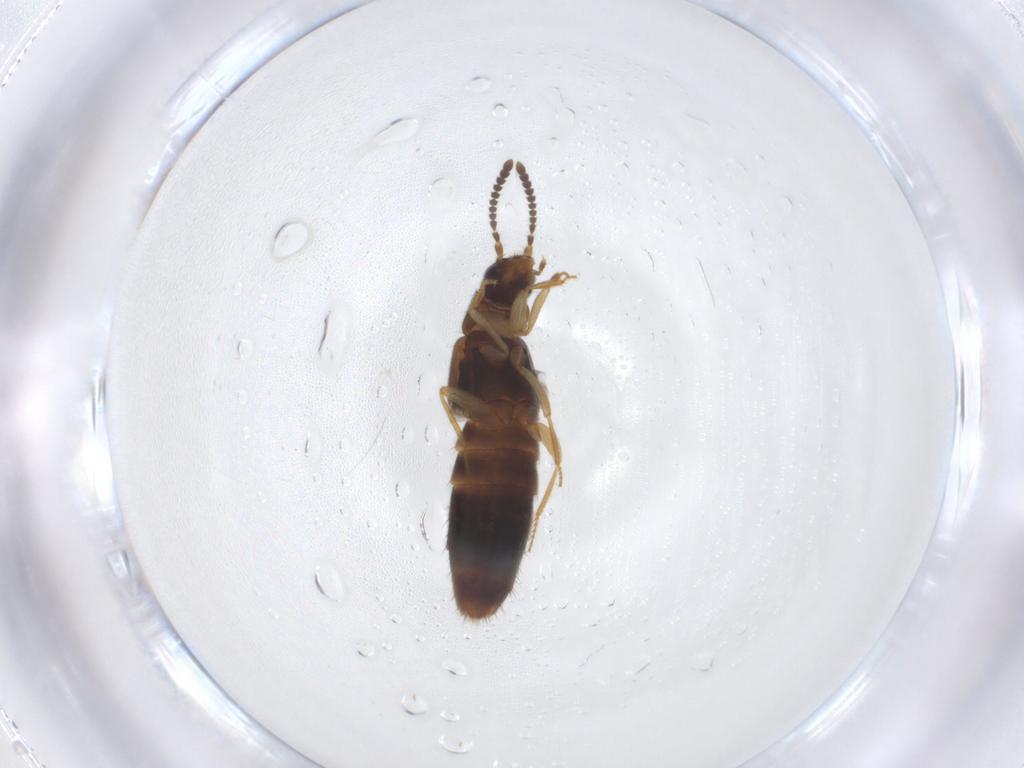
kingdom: Animalia
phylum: Arthropoda
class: Insecta
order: Coleoptera
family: Staphylinidae
